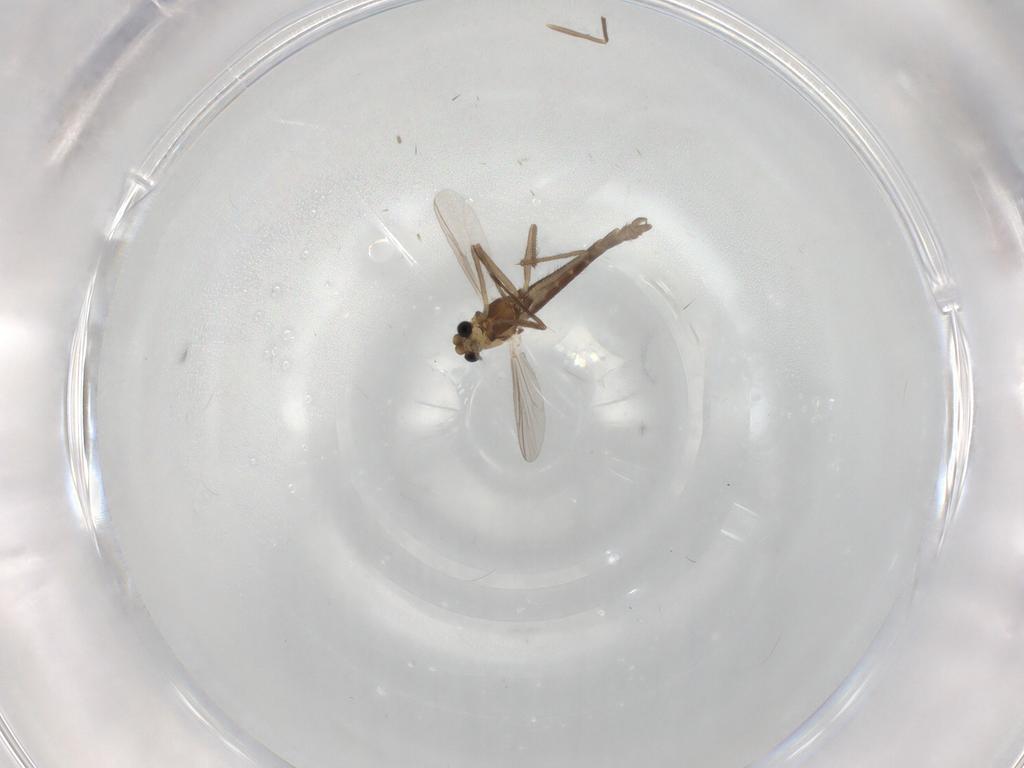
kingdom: Animalia
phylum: Arthropoda
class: Insecta
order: Diptera
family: Chironomidae
